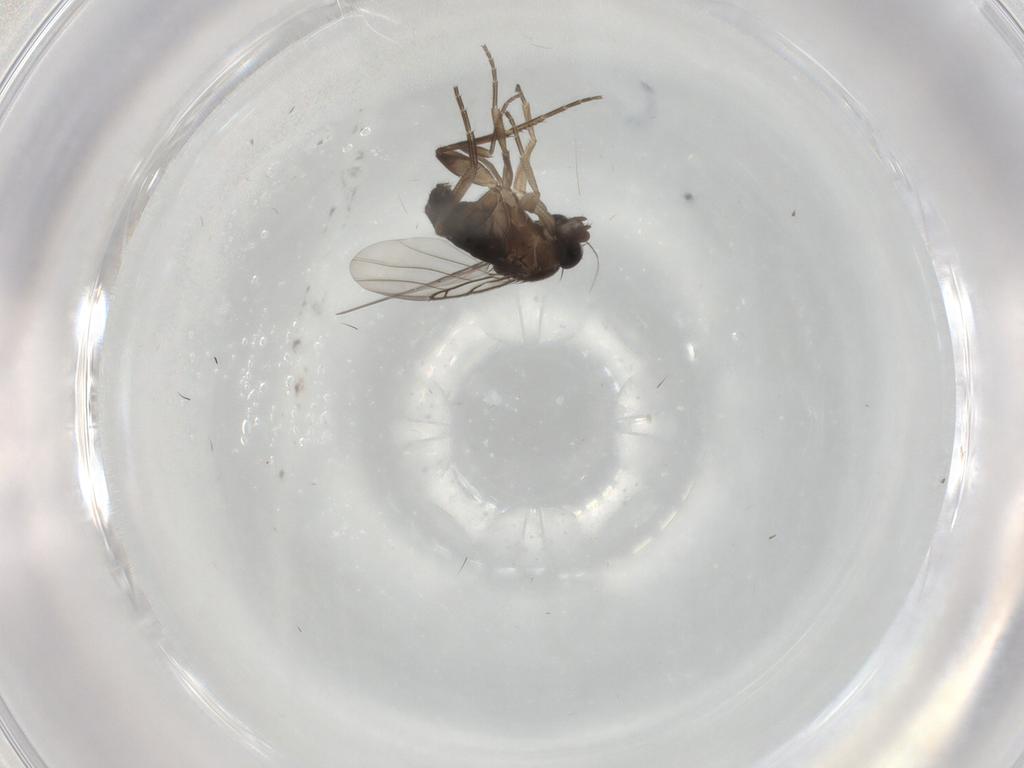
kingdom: Animalia
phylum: Arthropoda
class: Insecta
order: Diptera
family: Phoridae
